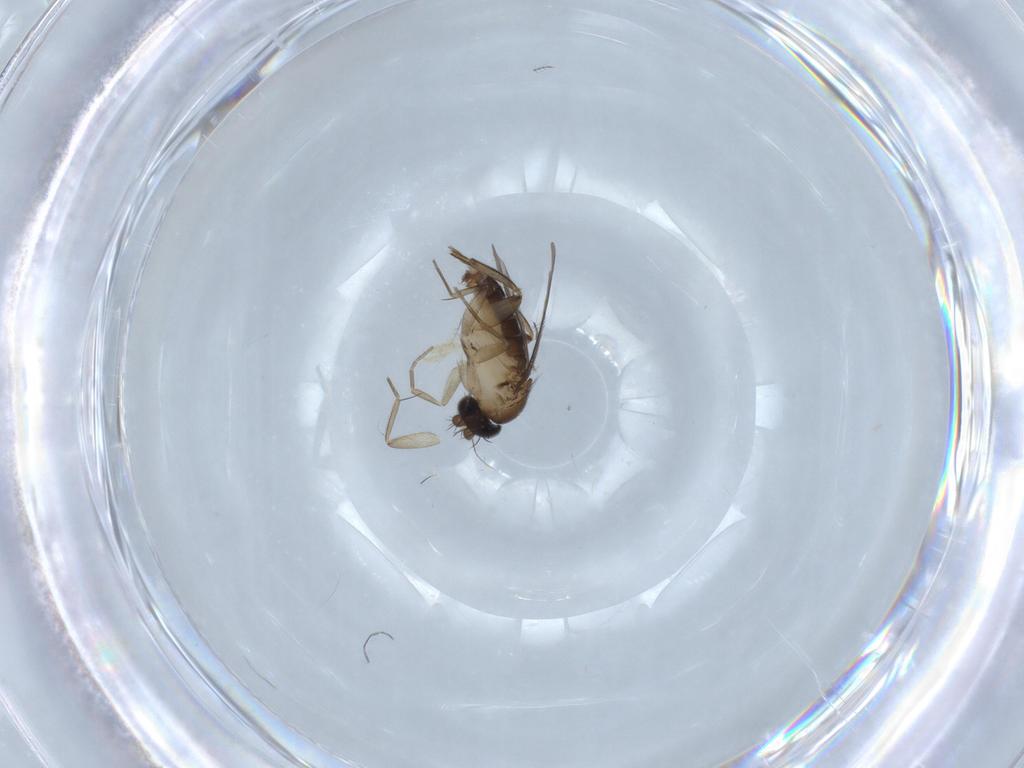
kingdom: Animalia
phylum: Arthropoda
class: Insecta
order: Diptera
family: Phoridae
